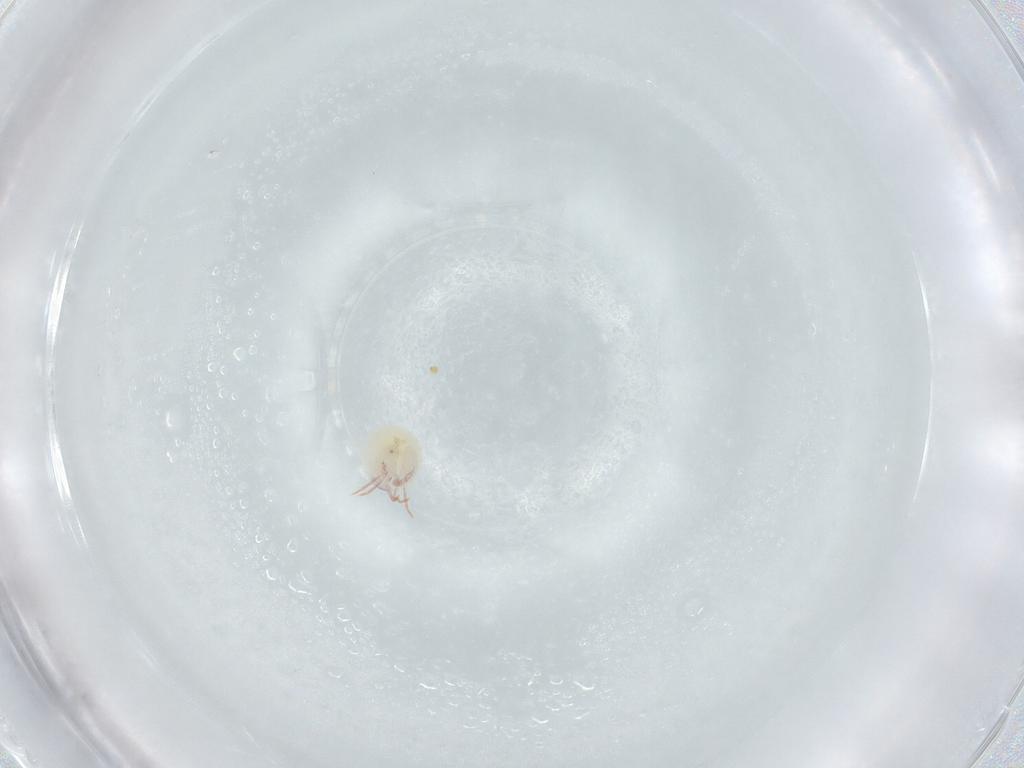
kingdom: Animalia
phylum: Arthropoda
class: Arachnida
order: Trombidiformes
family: Lebertiidae
